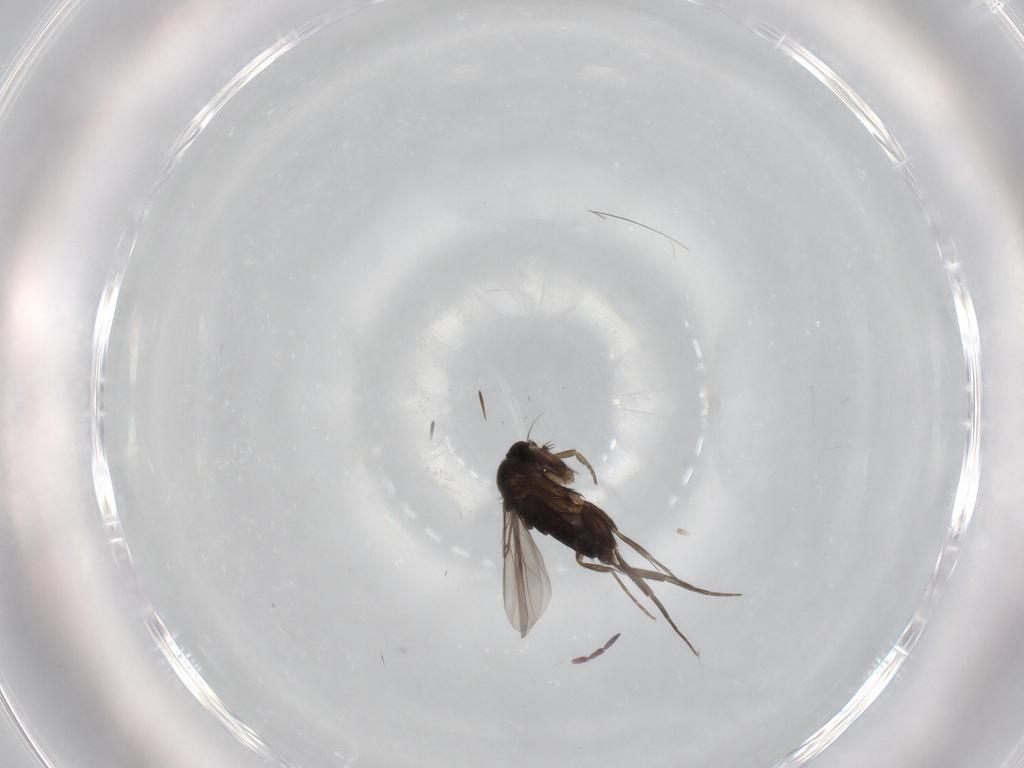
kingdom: Animalia
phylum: Arthropoda
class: Insecta
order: Diptera
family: Phoridae
